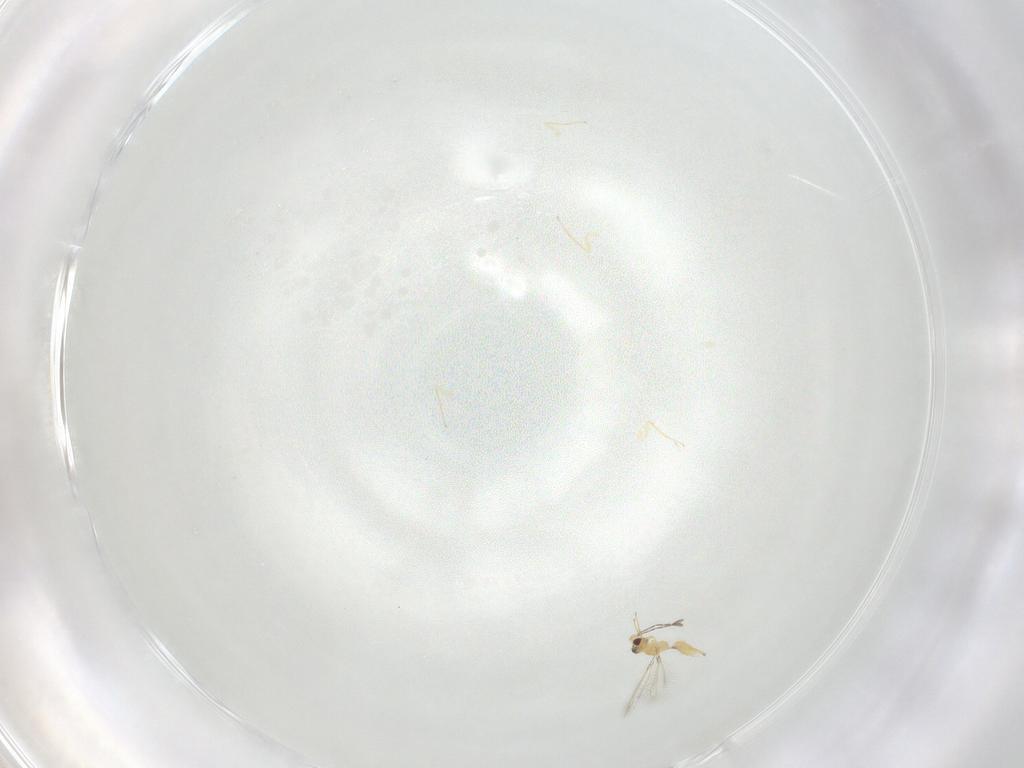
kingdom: Animalia
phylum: Arthropoda
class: Insecta
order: Hymenoptera
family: Mymaridae
